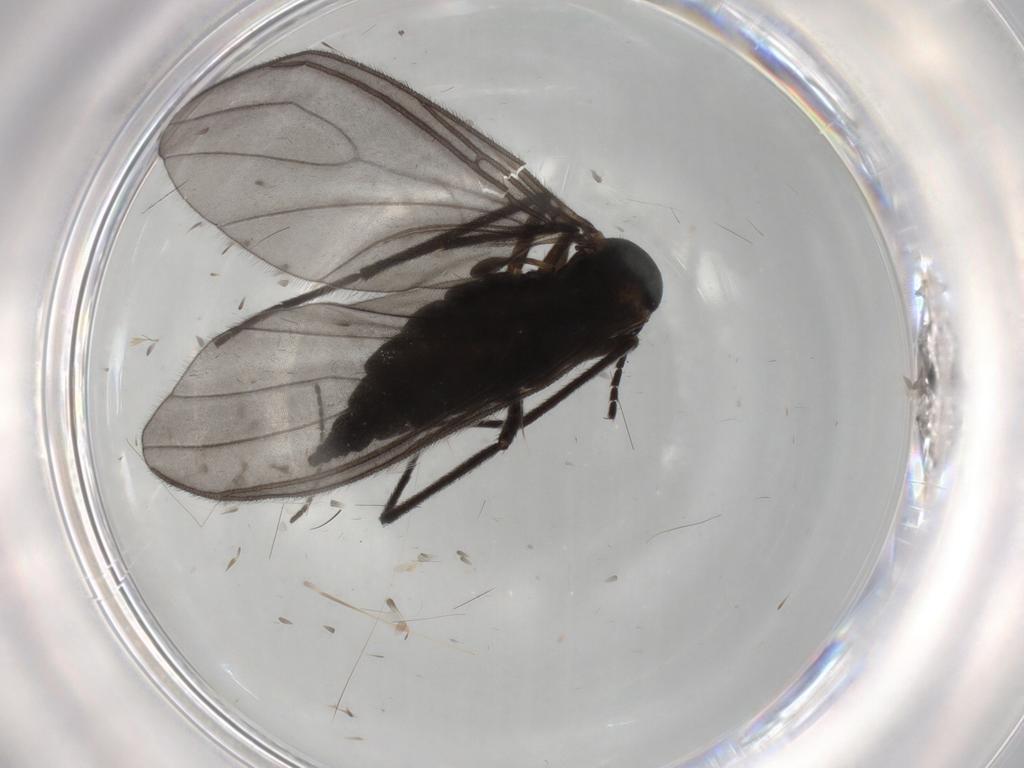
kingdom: Animalia
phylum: Arthropoda
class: Insecta
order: Diptera
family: Sciaridae
